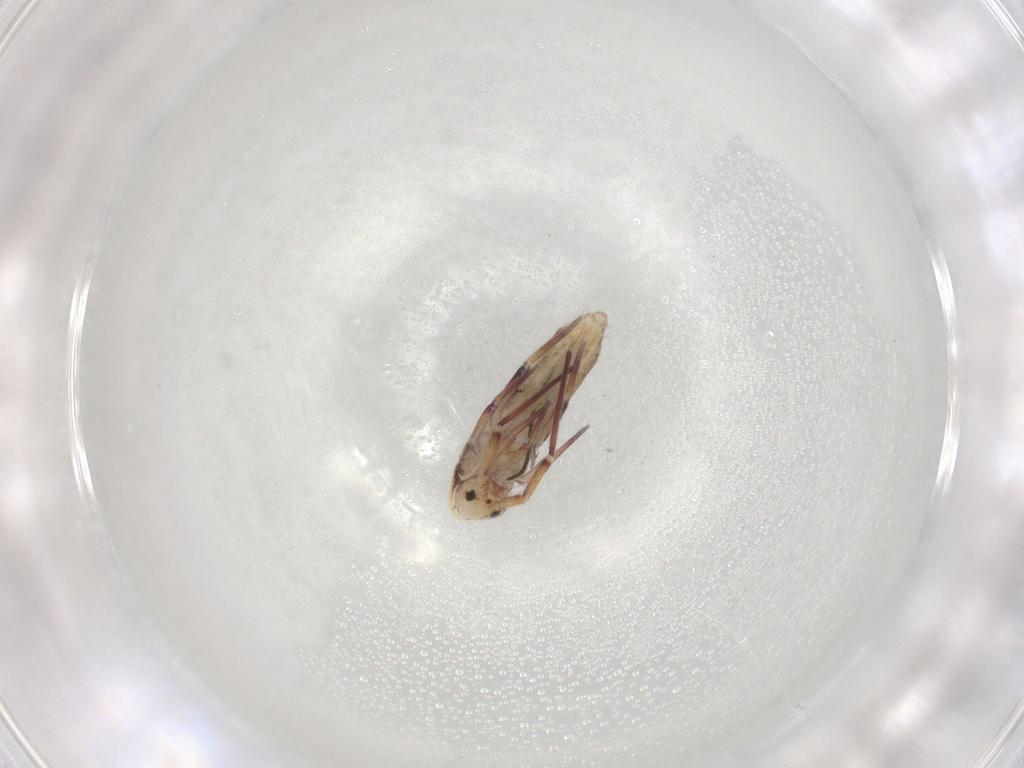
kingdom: Animalia
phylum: Arthropoda
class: Collembola
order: Entomobryomorpha
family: Entomobryidae
